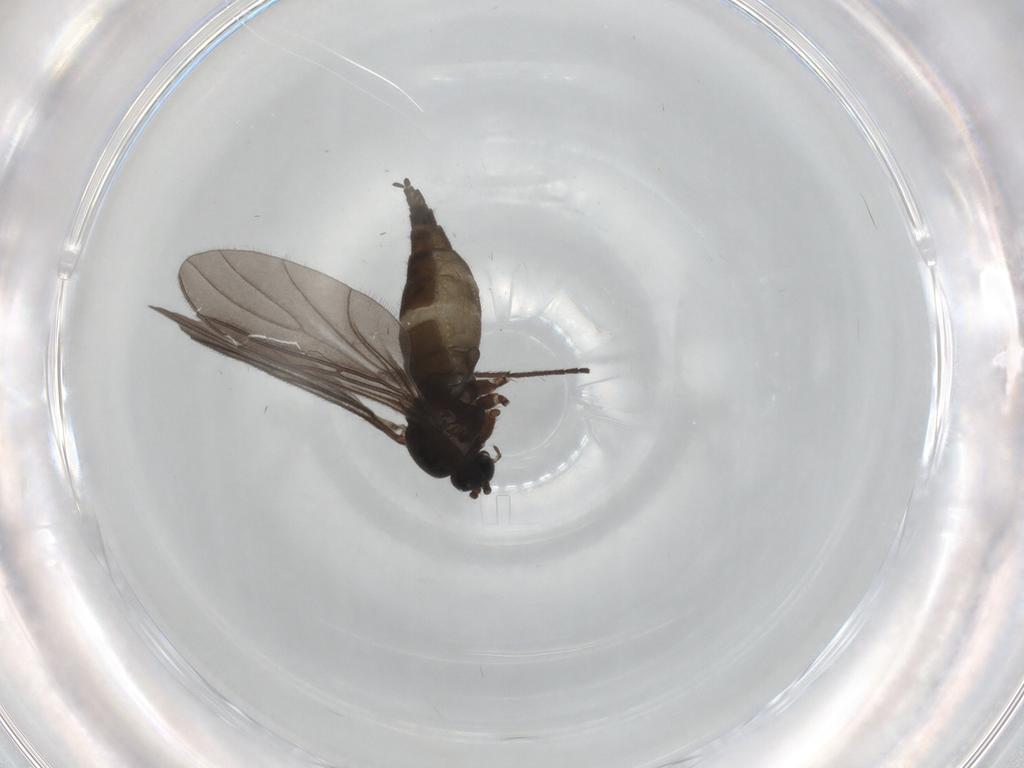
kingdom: Animalia
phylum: Arthropoda
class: Insecta
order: Diptera
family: Sciaridae
